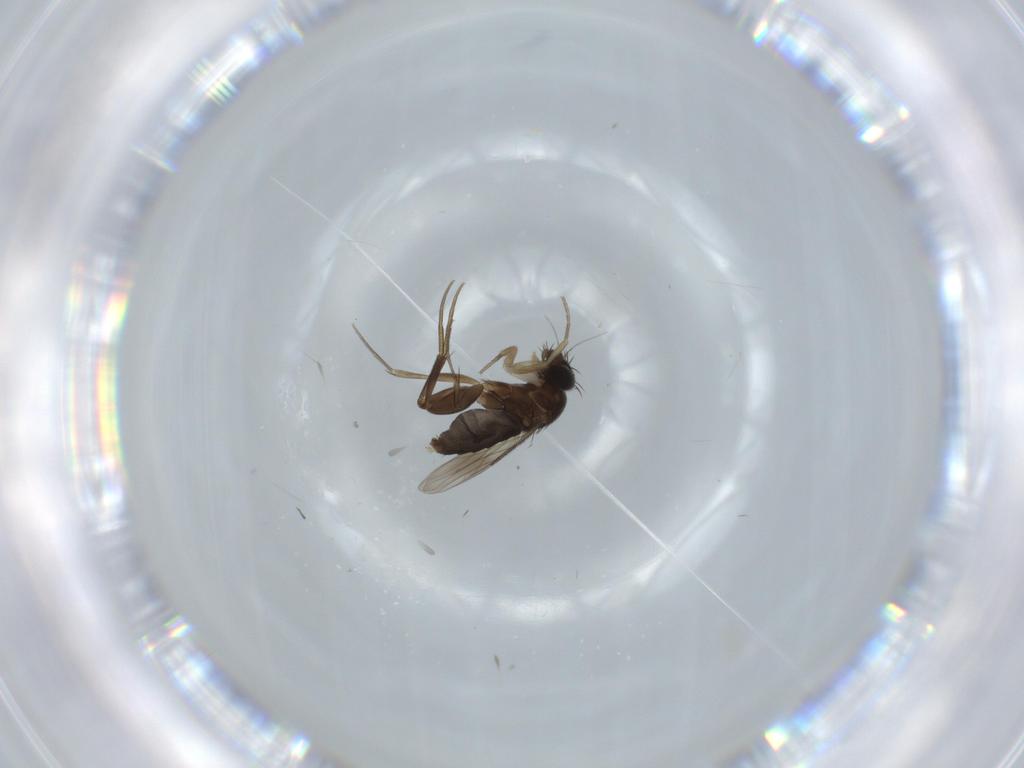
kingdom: Animalia
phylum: Arthropoda
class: Insecta
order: Diptera
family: Phoridae
